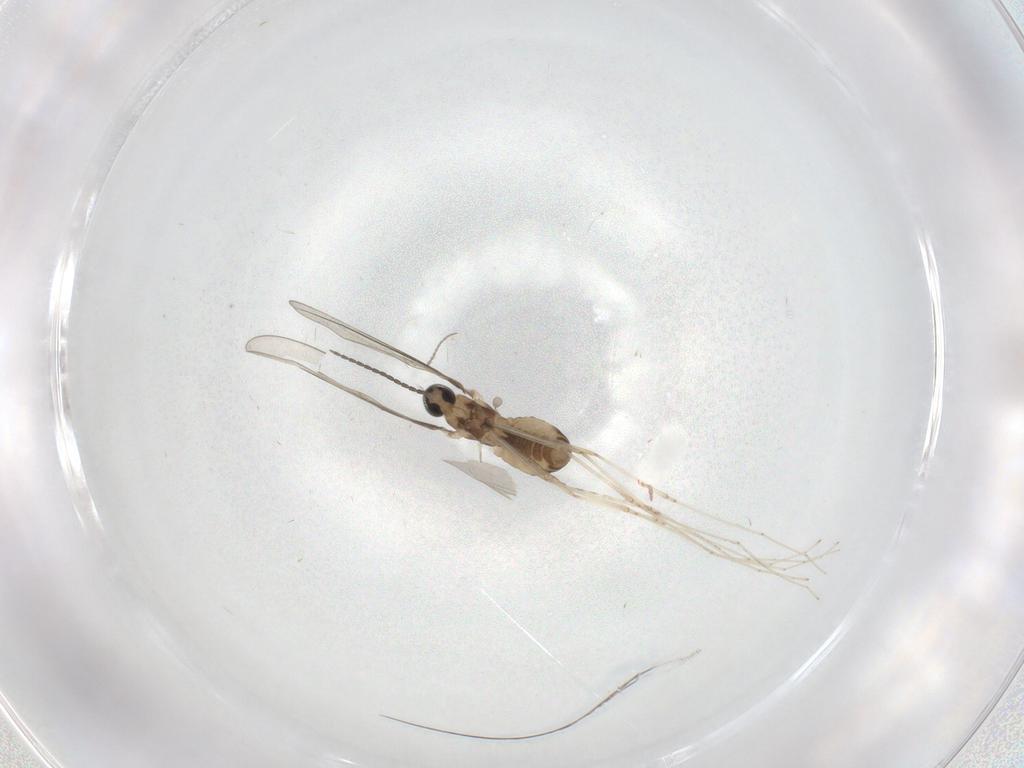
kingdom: Animalia
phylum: Arthropoda
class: Insecta
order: Diptera
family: Cecidomyiidae
